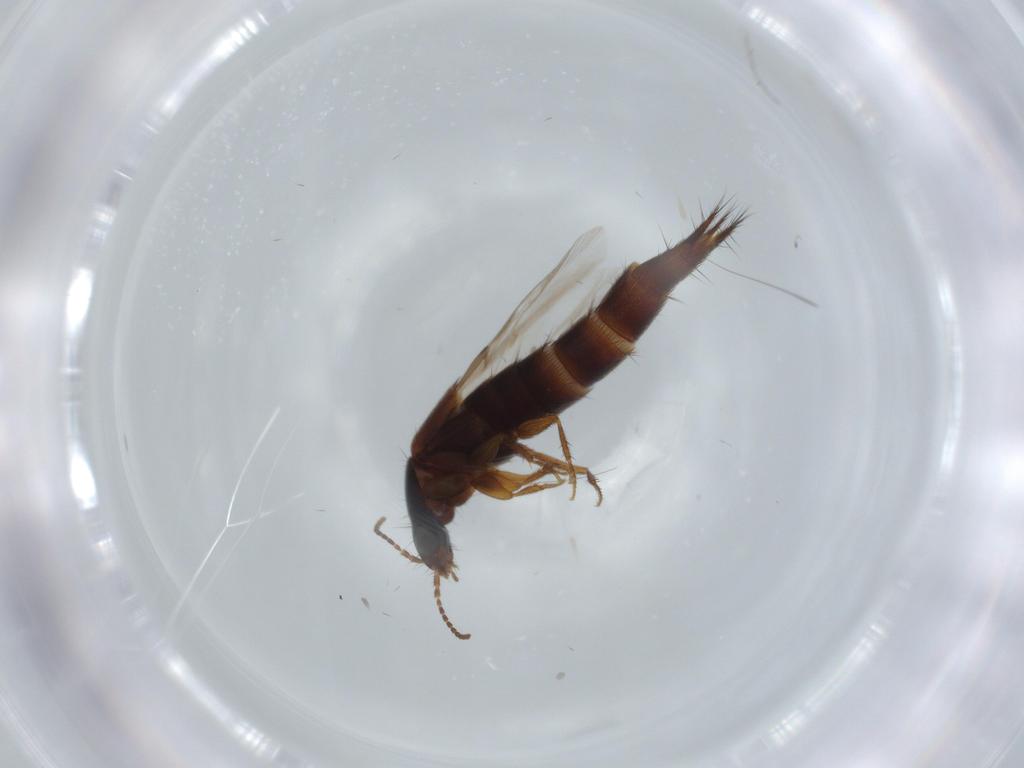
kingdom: Animalia
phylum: Arthropoda
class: Insecta
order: Coleoptera
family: Staphylinidae
